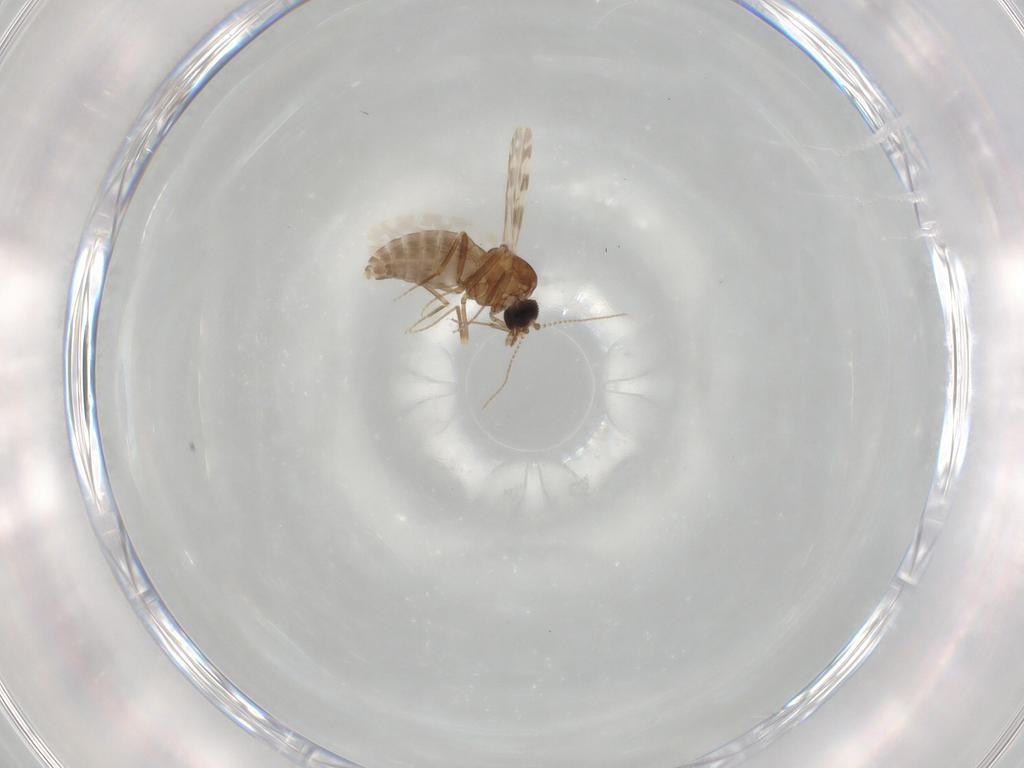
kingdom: Animalia
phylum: Arthropoda
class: Insecta
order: Diptera
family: Ceratopogonidae
